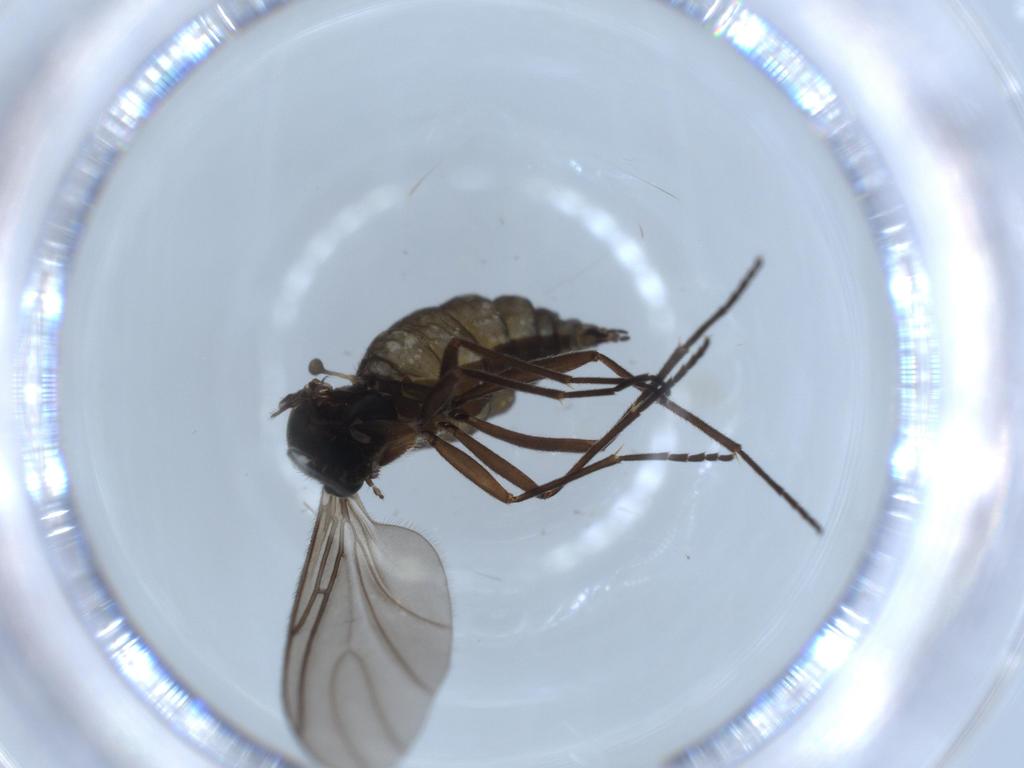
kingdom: Animalia
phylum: Arthropoda
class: Insecta
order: Diptera
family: Sciaridae
